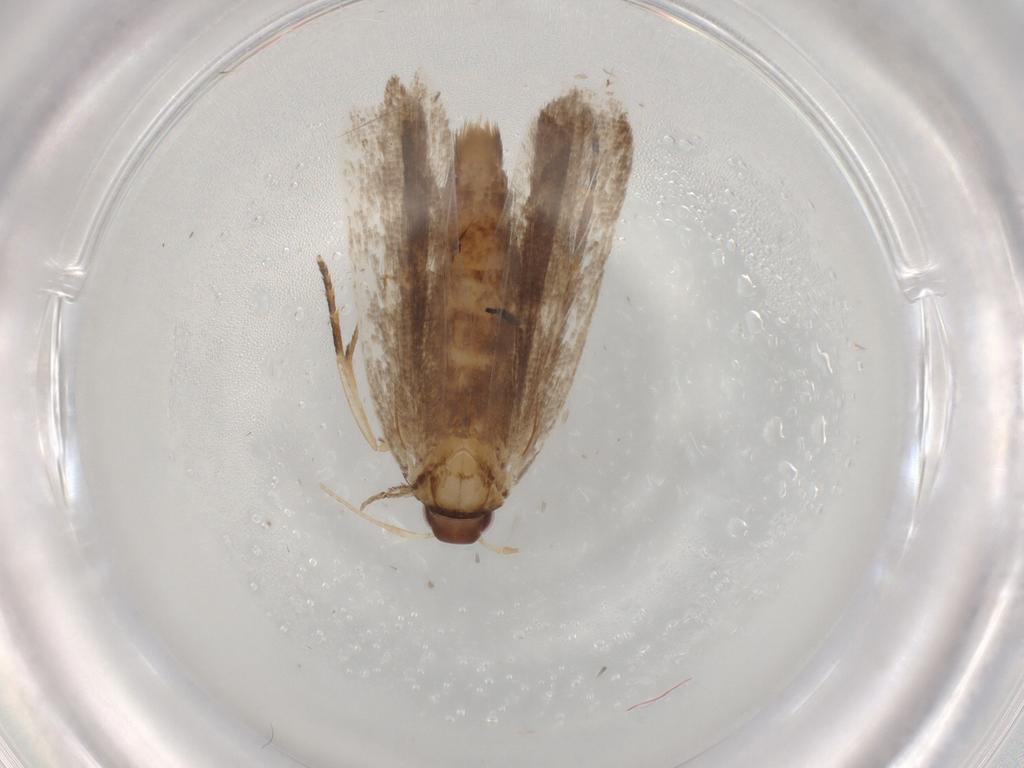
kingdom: Animalia
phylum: Arthropoda
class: Insecta
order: Lepidoptera
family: Gelechiidae
